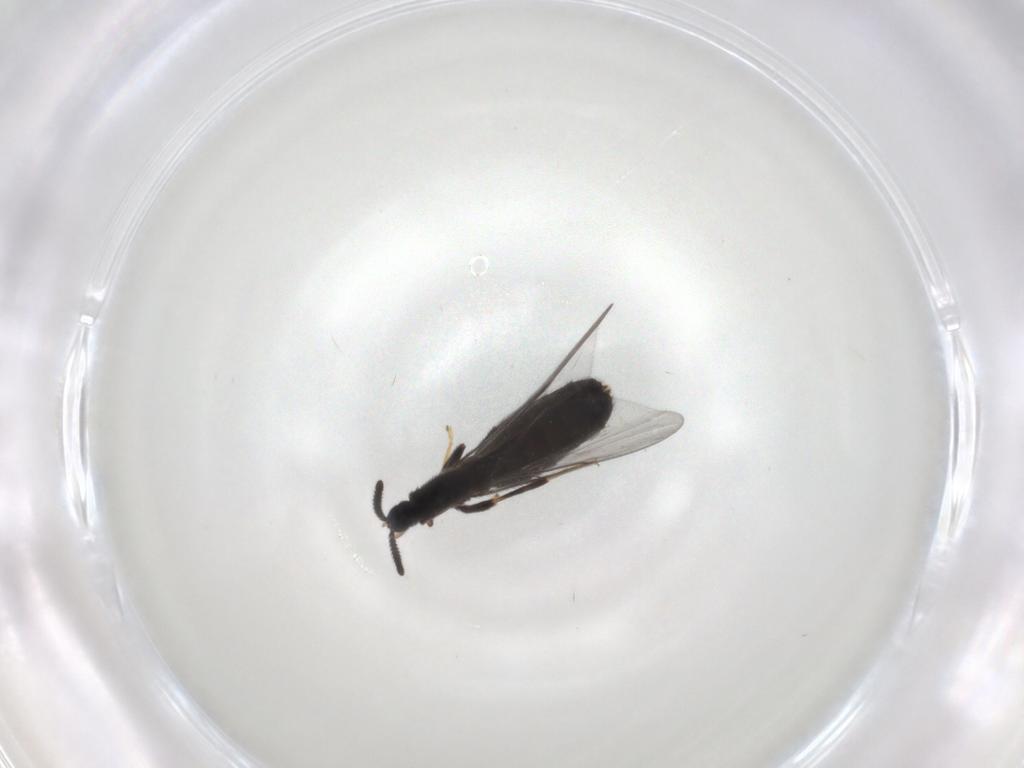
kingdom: Animalia
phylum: Arthropoda
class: Insecta
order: Diptera
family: Scatopsidae
